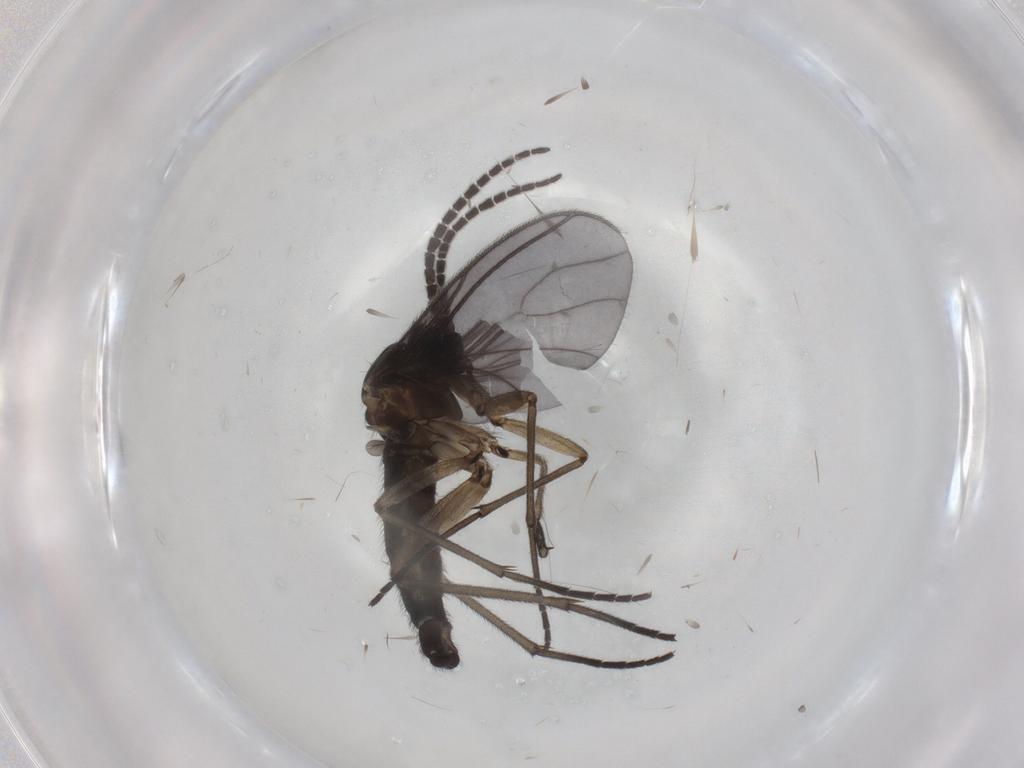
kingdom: Animalia
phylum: Arthropoda
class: Insecta
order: Diptera
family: Sciaridae
